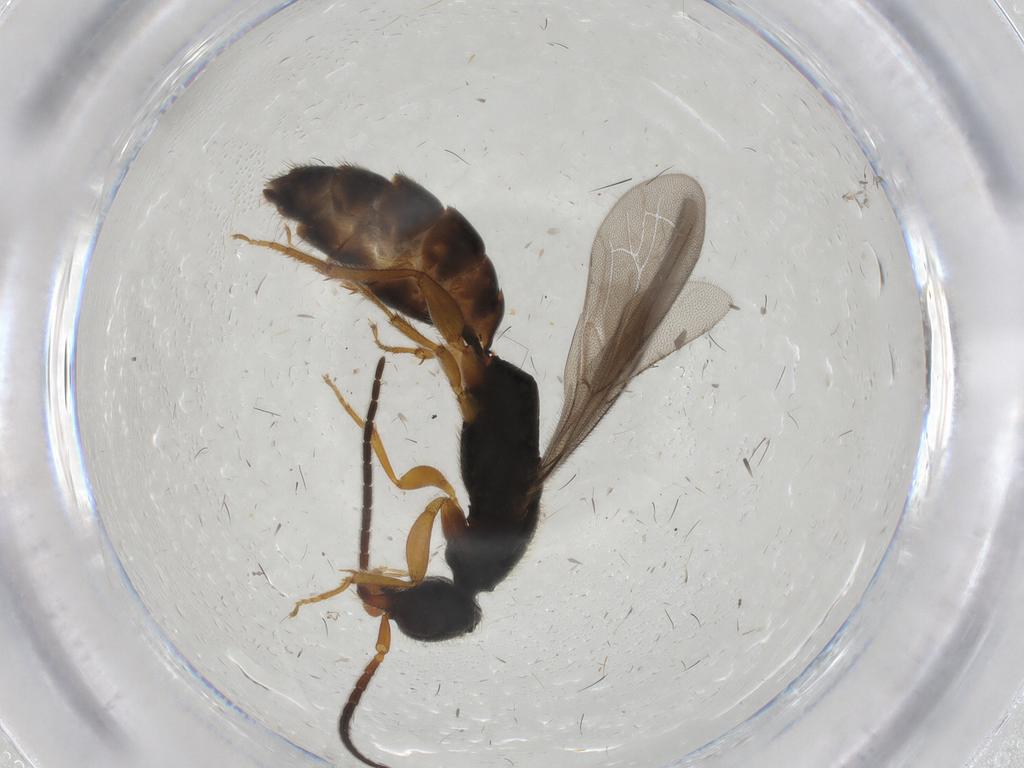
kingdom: Animalia
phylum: Arthropoda
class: Insecta
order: Hymenoptera
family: Bethylidae
